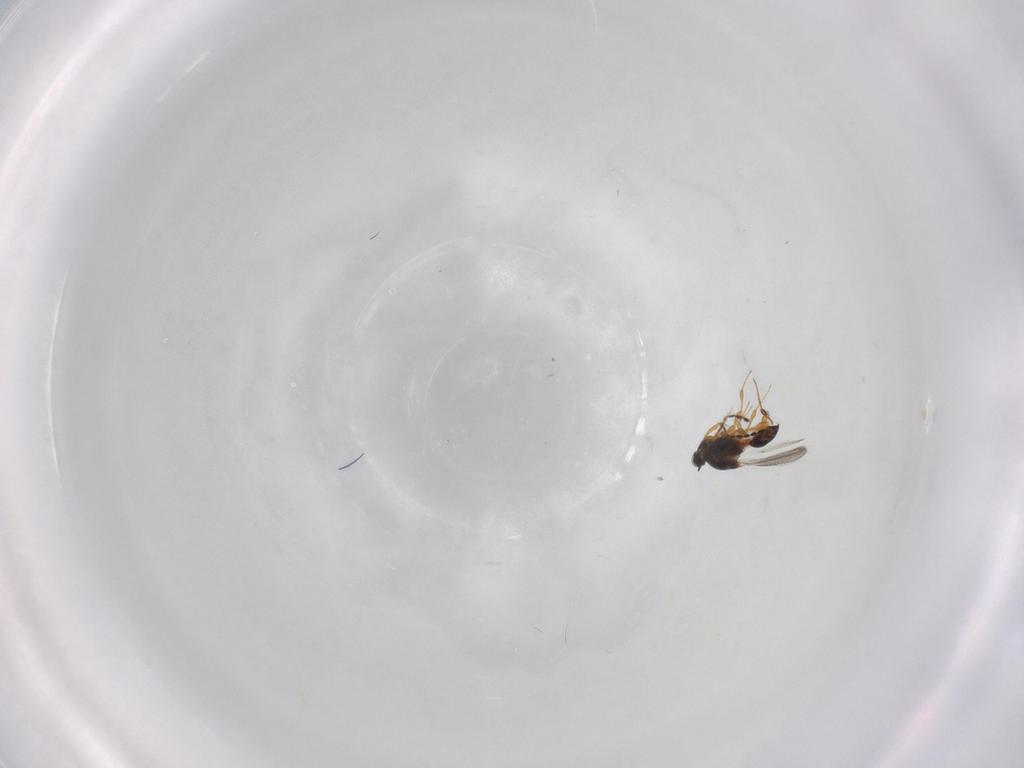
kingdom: Animalia
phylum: Arthropoda
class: Insecta
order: Hymenoptera
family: Platygastridae
